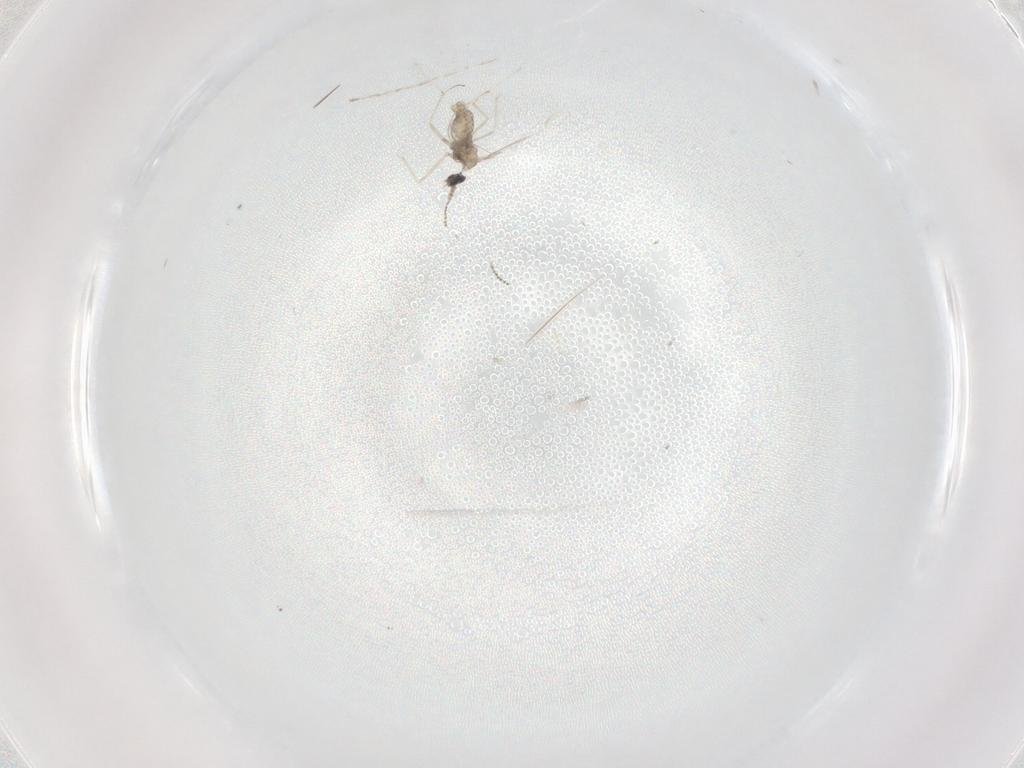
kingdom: Animalia
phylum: Arthropoda
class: Insecta
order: Diptera
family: Cecidomyiidae
